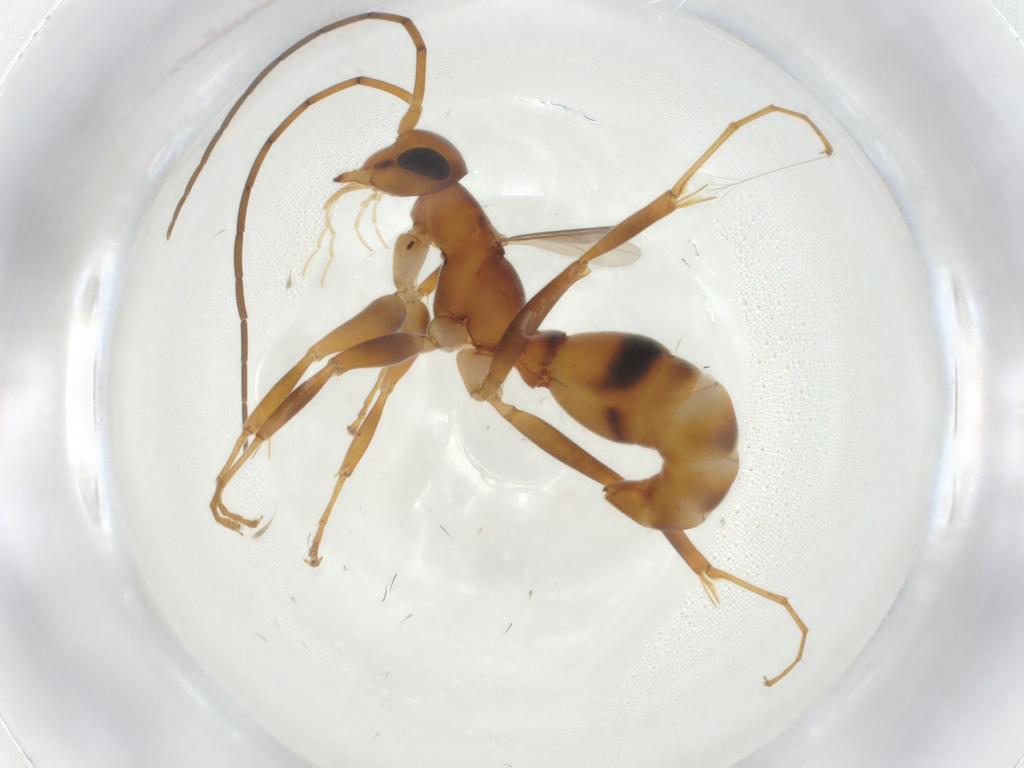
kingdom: Animalia
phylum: Arthropoda
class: Insecta
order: Hymenoptera
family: Rhopalosomatidae
